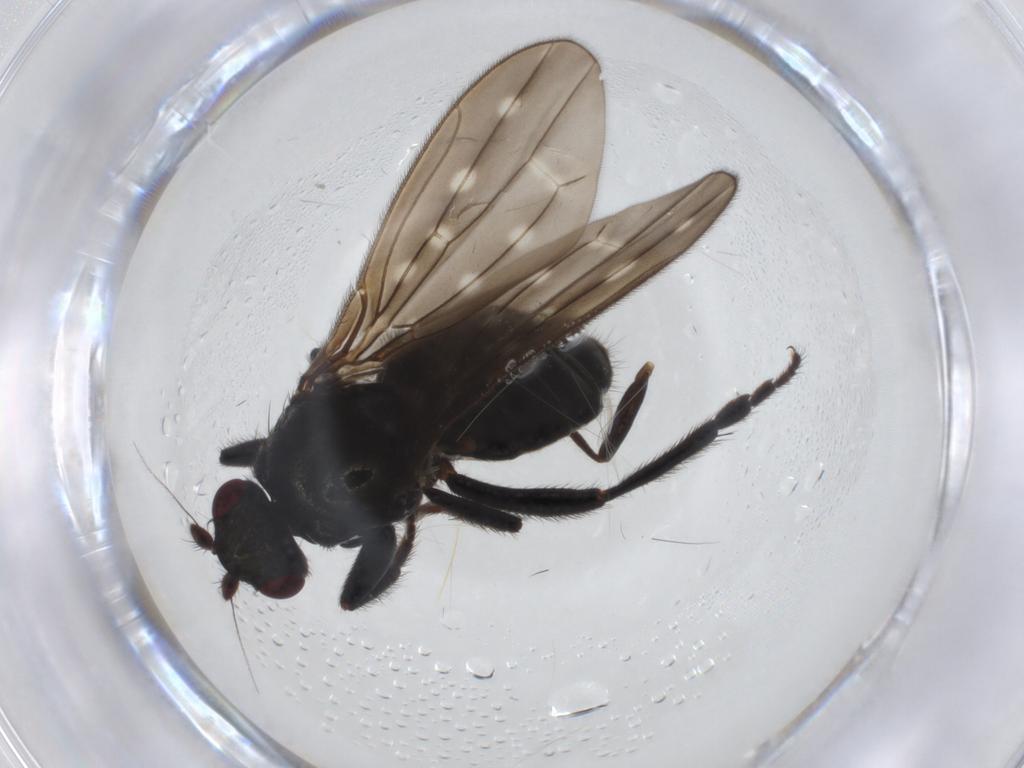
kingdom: Animalia
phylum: Arthropoda
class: Insecta
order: Diptera
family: Sphaeroceridae
